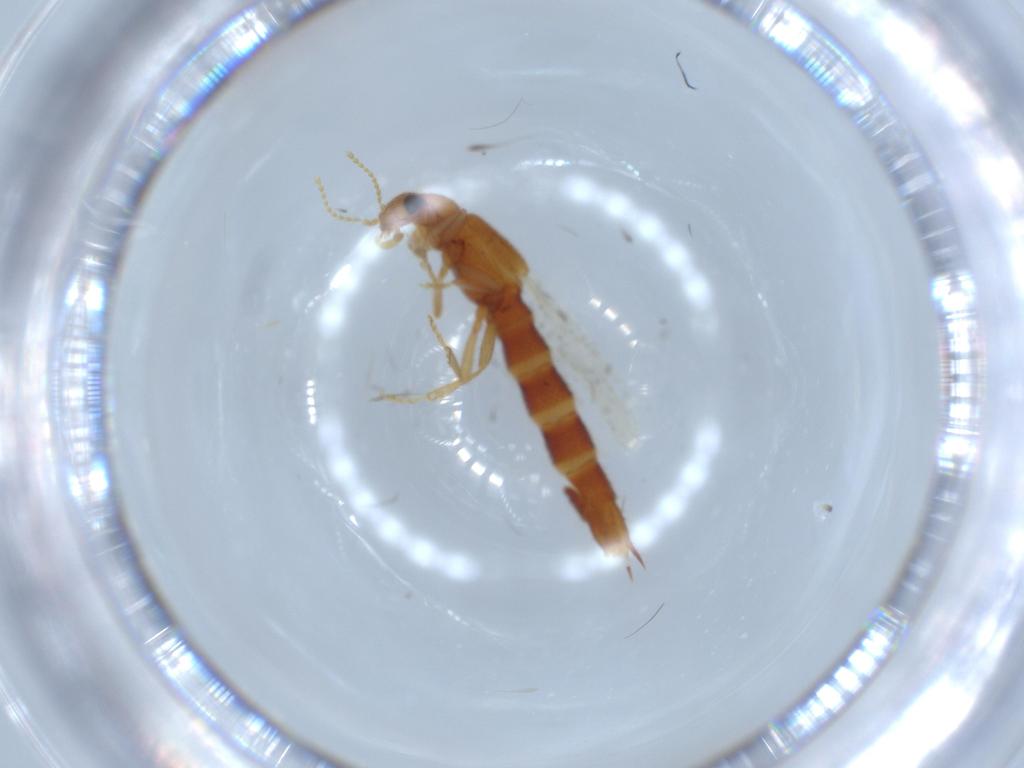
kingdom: Animalia
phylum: Arthropoda
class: Insecta
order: Coleoptera
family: Staphylinidae
